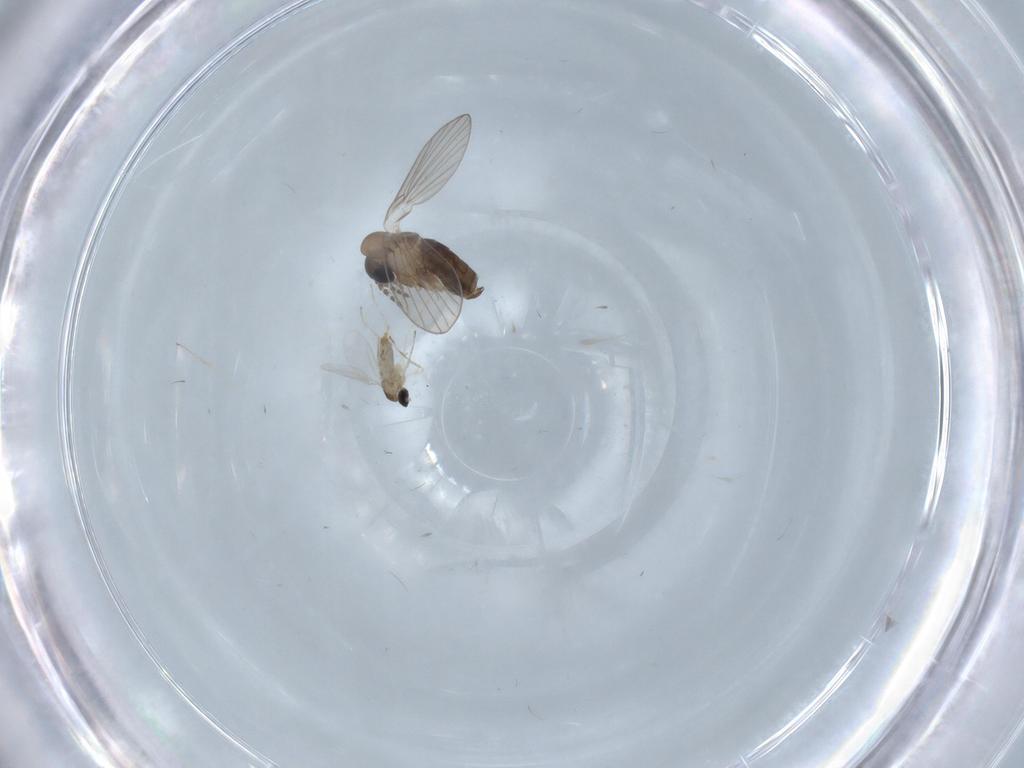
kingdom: Animalia
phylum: Arthropoda
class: Insecta
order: Diptera
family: Cecidomyiidae
